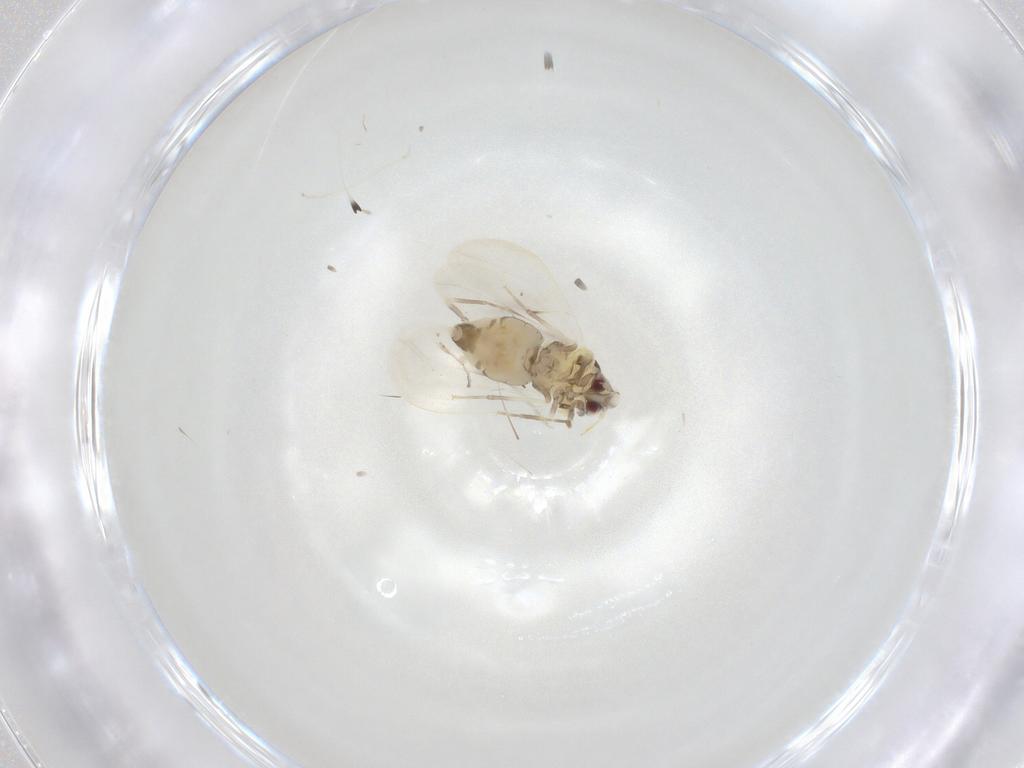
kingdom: Animalia
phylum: Arthropoda
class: Insecta
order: Hemiptera
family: Aleyrodidae
